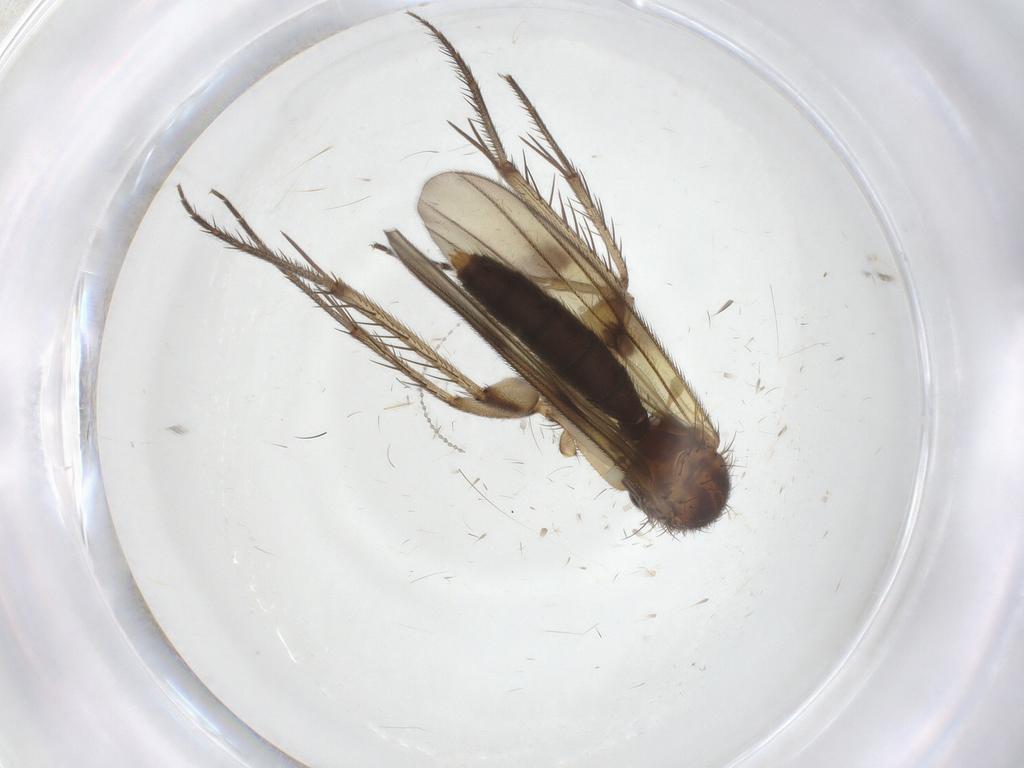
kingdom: Animalia
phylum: Arthropoda
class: Insecta
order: Diptera
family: Mycetophilidae
